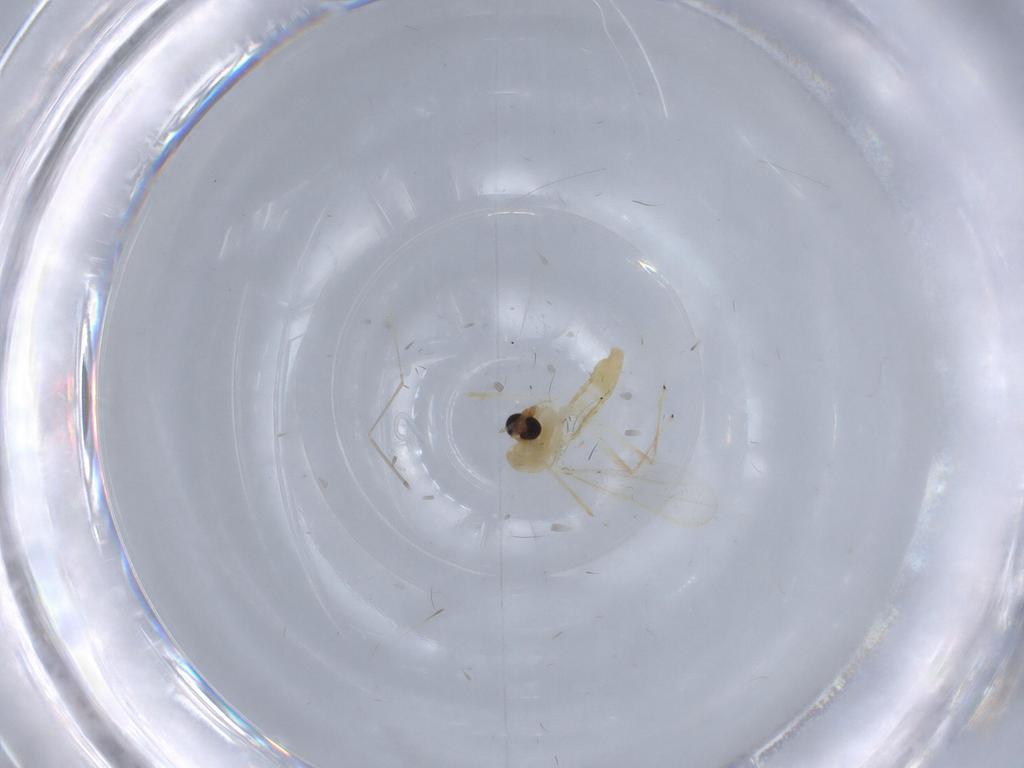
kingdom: Animalia
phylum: Arthropoda
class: Insecta
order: Diptera
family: Cecidomyiidae
